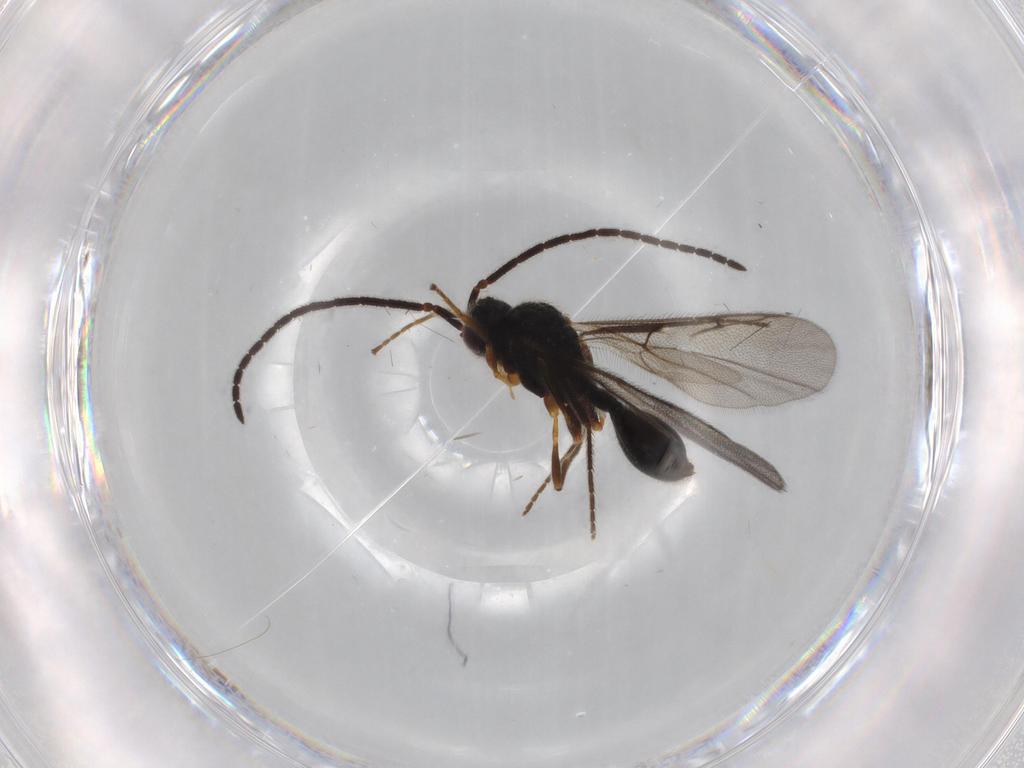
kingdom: Animalia
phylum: Arthropoda
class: Insecta
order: Hymenoptera
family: Diapriidae
